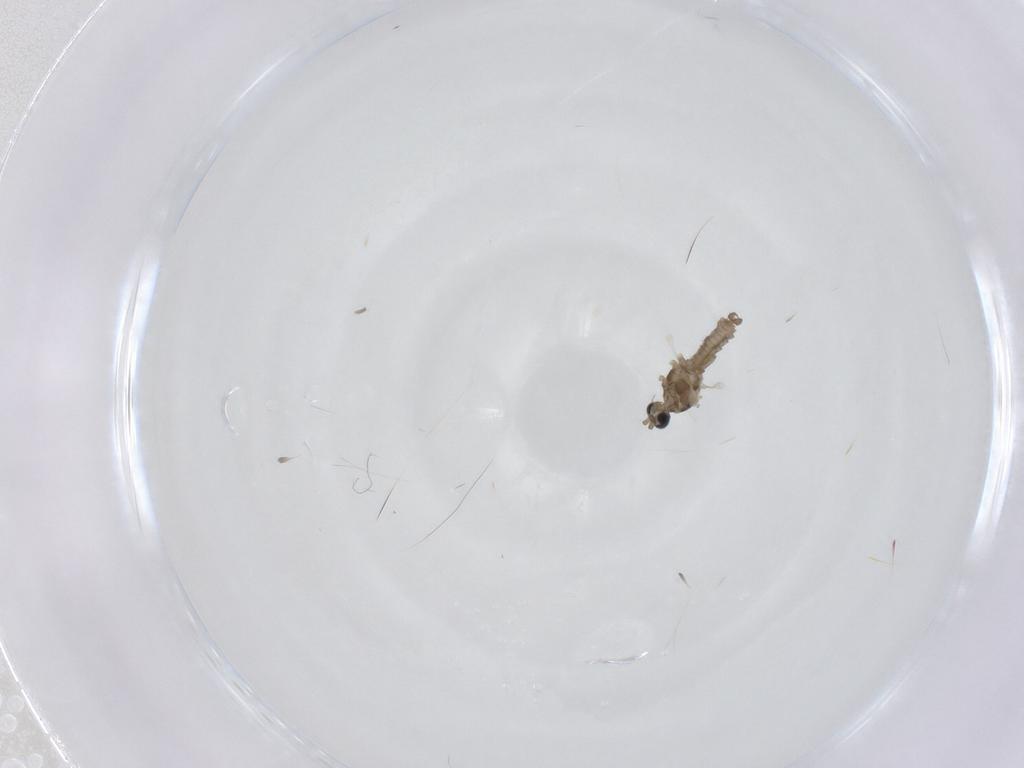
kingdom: Animalia
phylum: Arthropoda
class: Insecta
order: Diptera
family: Cecidomyiidae
